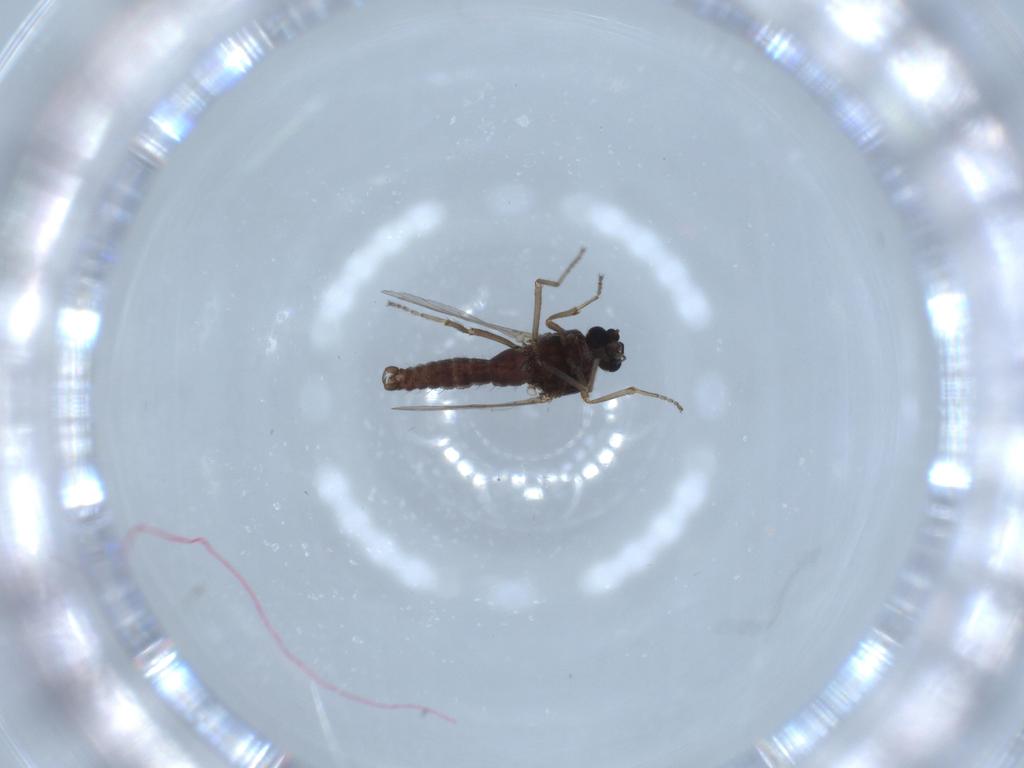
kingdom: Animalia
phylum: Arthropoda
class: Insecta
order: Diptera
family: Ceratopogonidae
